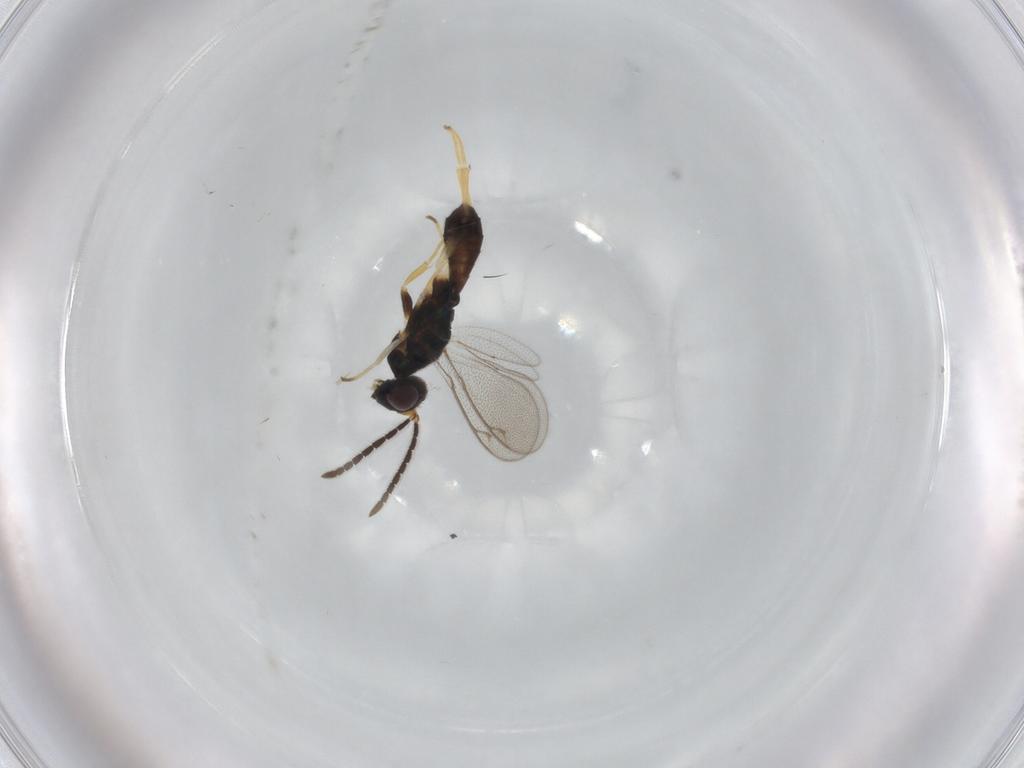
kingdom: Animalia
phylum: Arthropoda
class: Insecta
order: Hymenoptera
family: Eupelmidae
